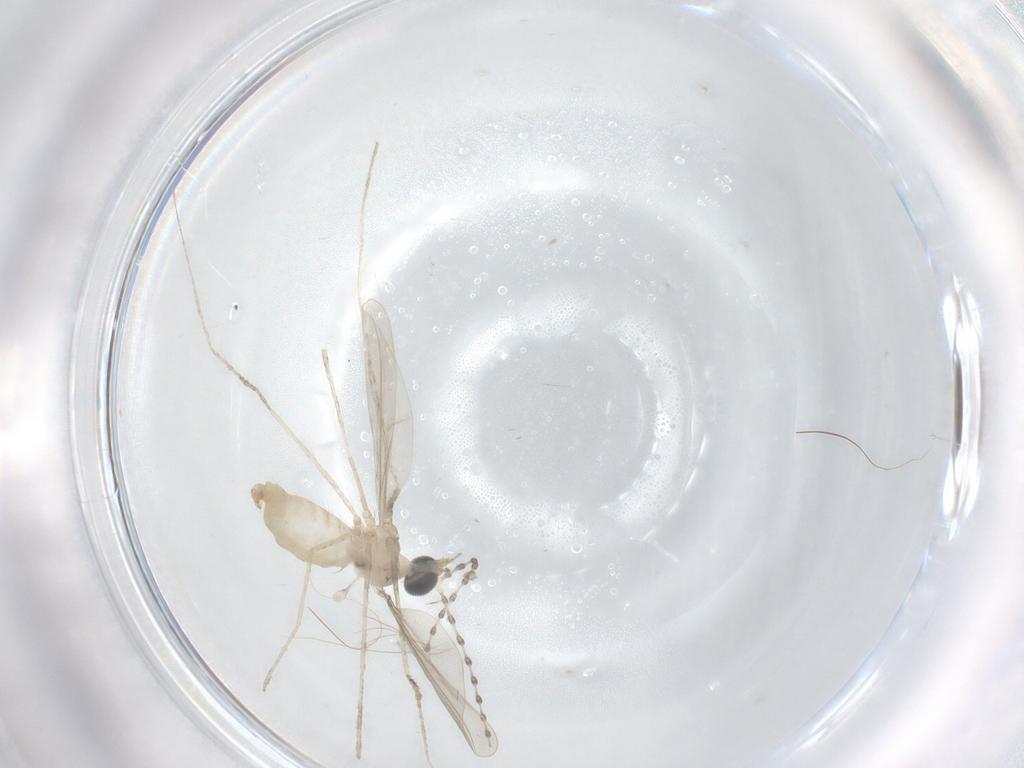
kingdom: Animalia
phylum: Arthropoda
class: Insecta
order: Diptera
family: Cecidomyiidae
